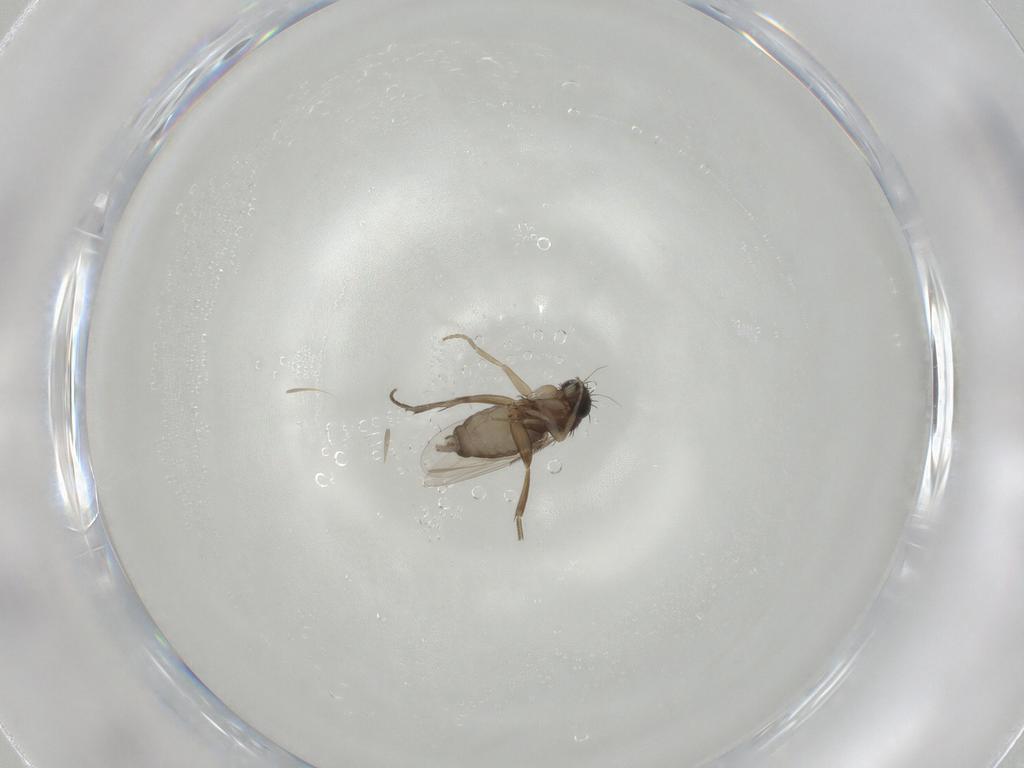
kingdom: Animalia
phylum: Arthropoda
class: Insecta
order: Diptera
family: Phoridae
